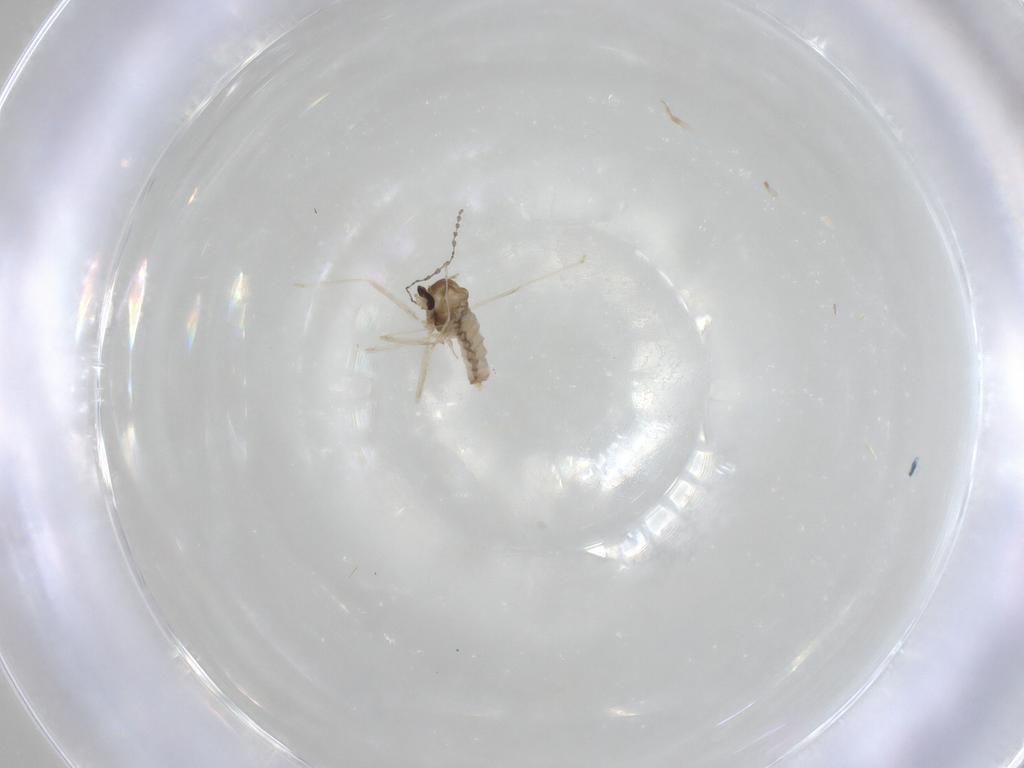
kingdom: Animalia
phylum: Arthropoda
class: Insecta
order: Diptera
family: Cecidomyiidae
